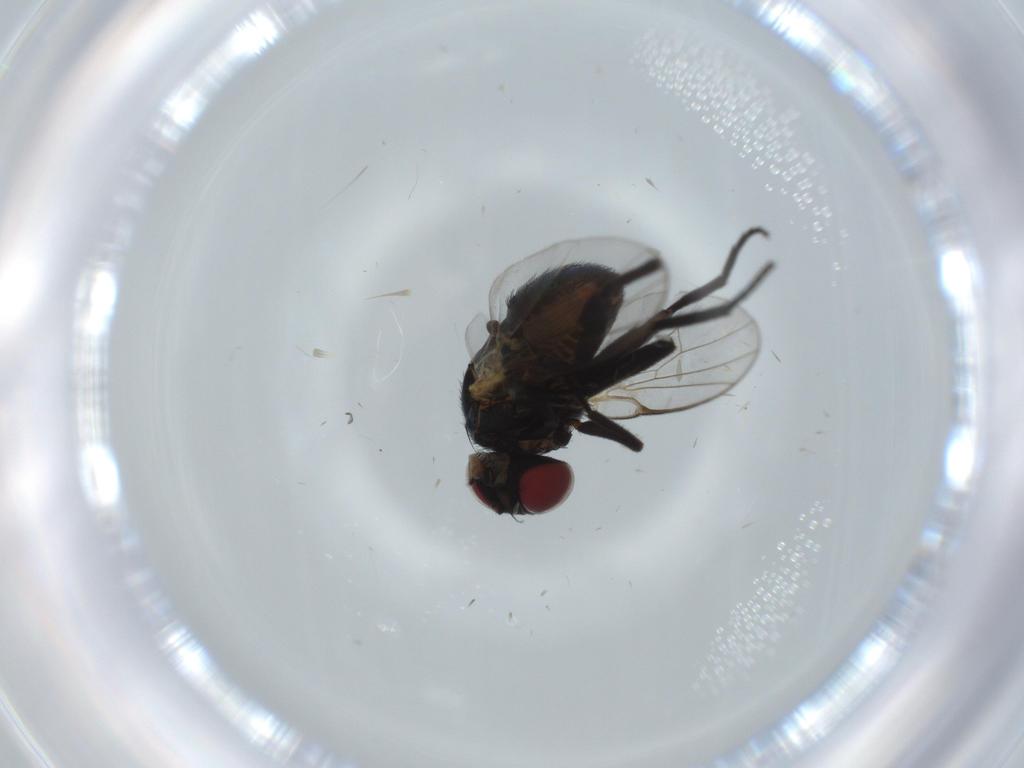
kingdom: Animalia
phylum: Arthropoda
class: Insecta
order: Diptera
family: Agromyzidae
